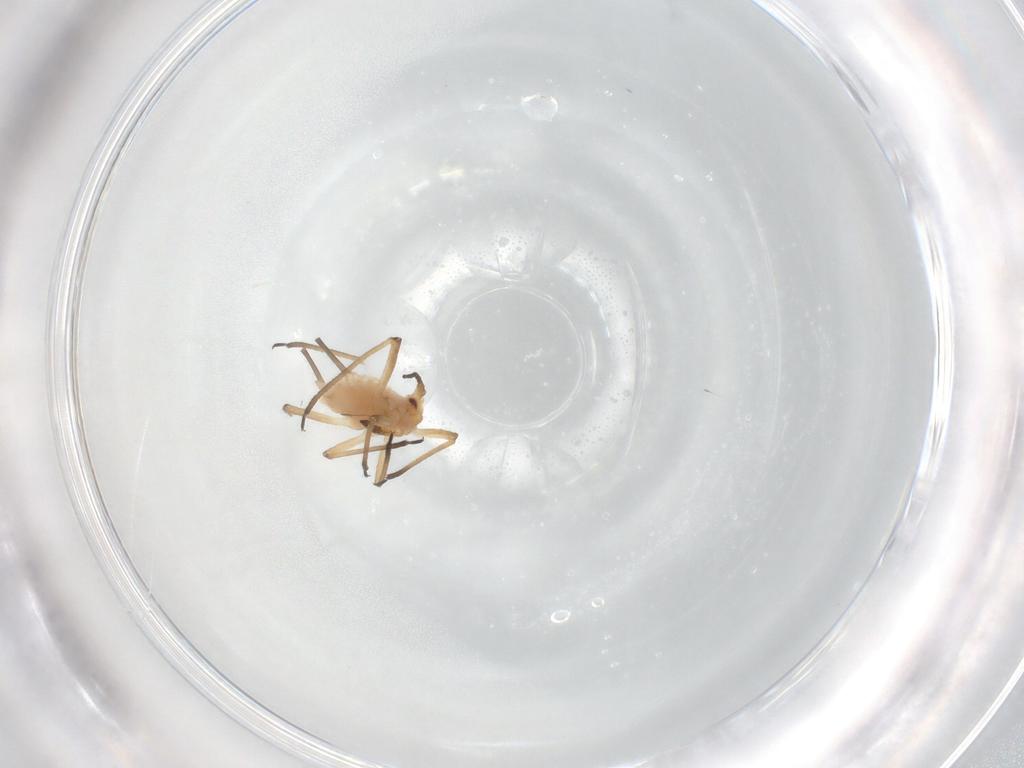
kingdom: Animalia
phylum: Arthropoda
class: Insecta
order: Hemiptera
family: Aphididae
